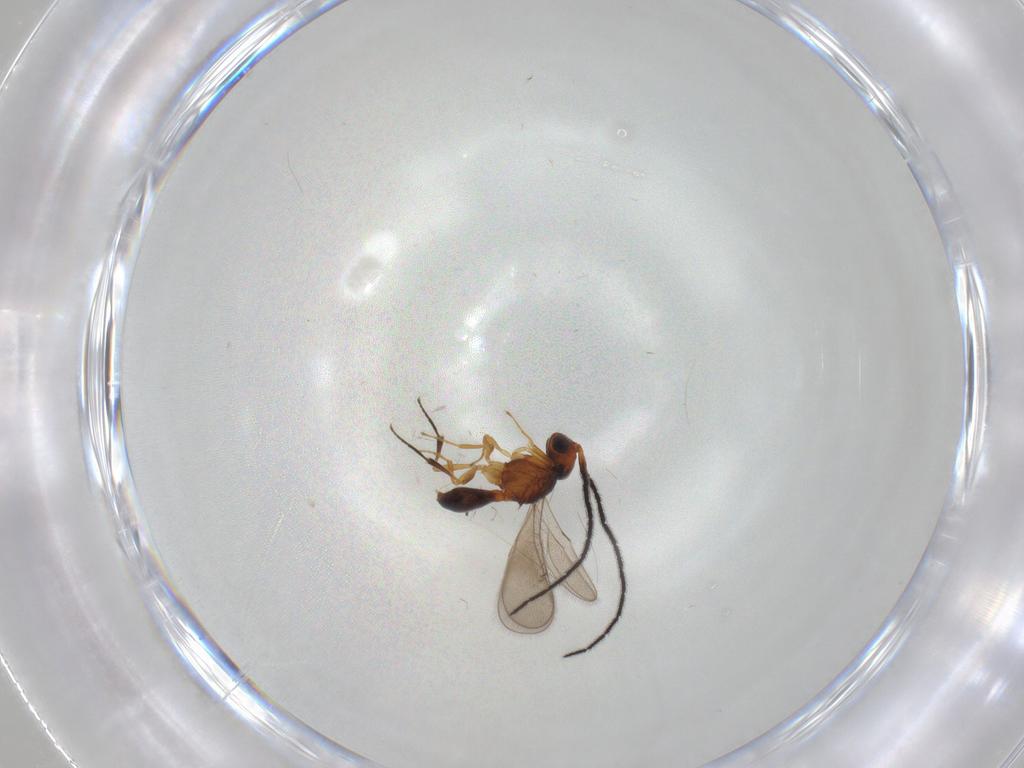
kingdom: Animalia
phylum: Arthropoda
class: Insecta
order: Hymenoptera
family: Scelionidae
